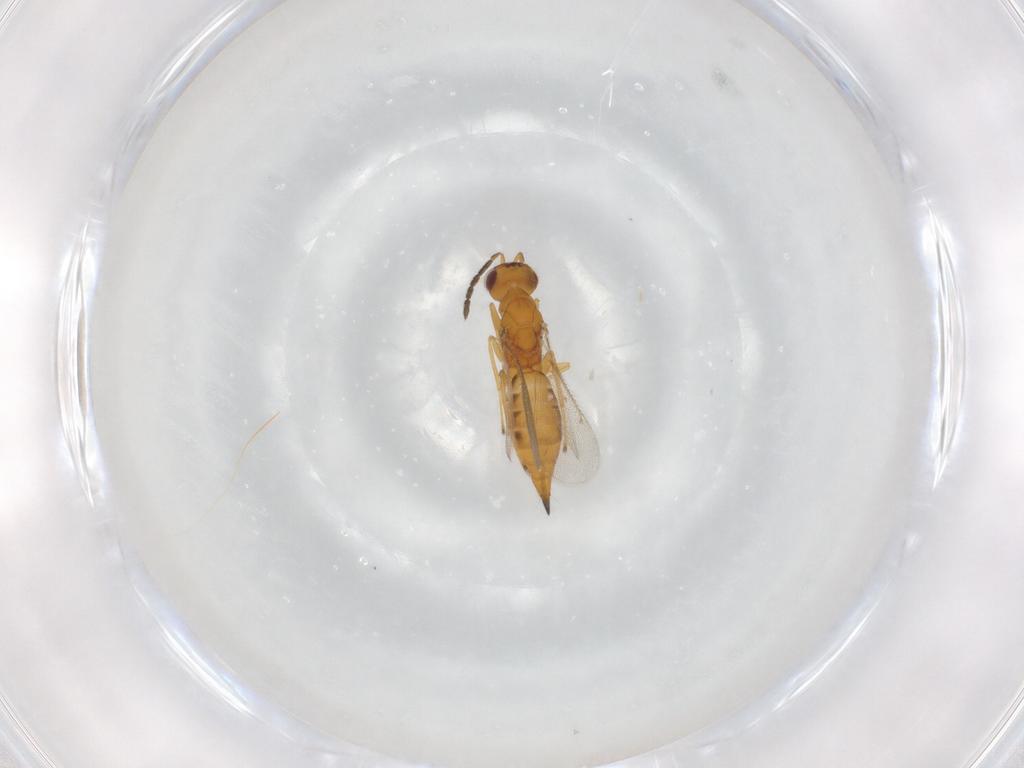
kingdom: Animalia
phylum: Arthropoda
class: Insecta
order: Hymenoptera
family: Eulophidae
